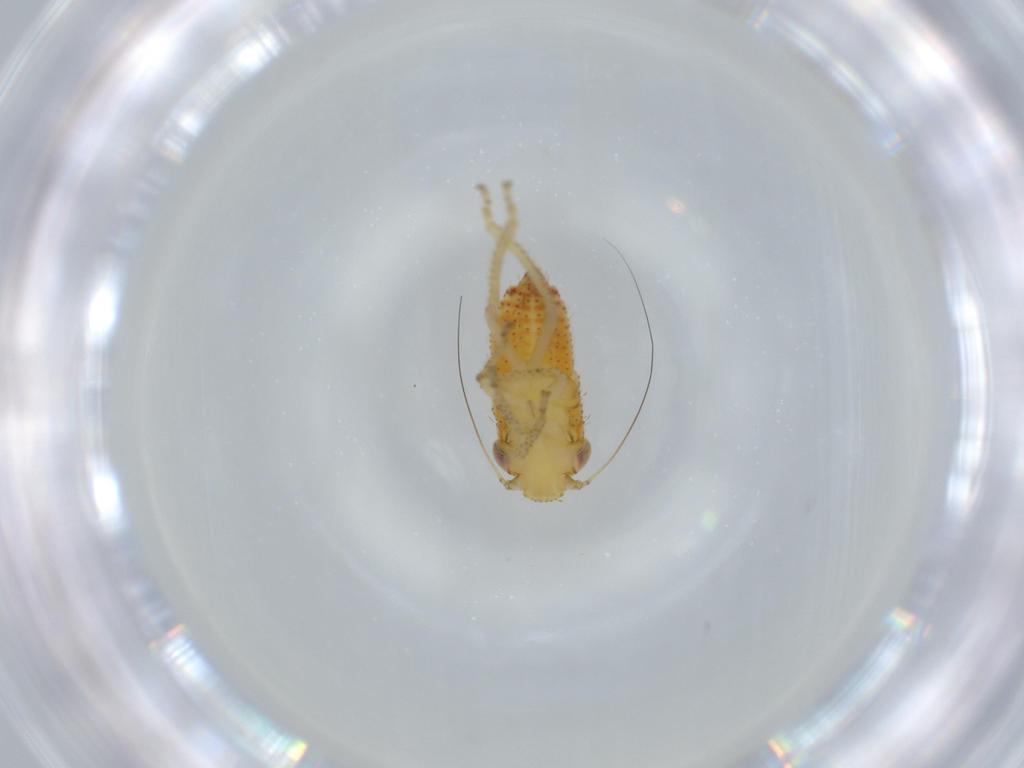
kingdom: Animalia
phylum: Arthropoda
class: Insecta
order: Hemiptera
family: Cicadellidae
